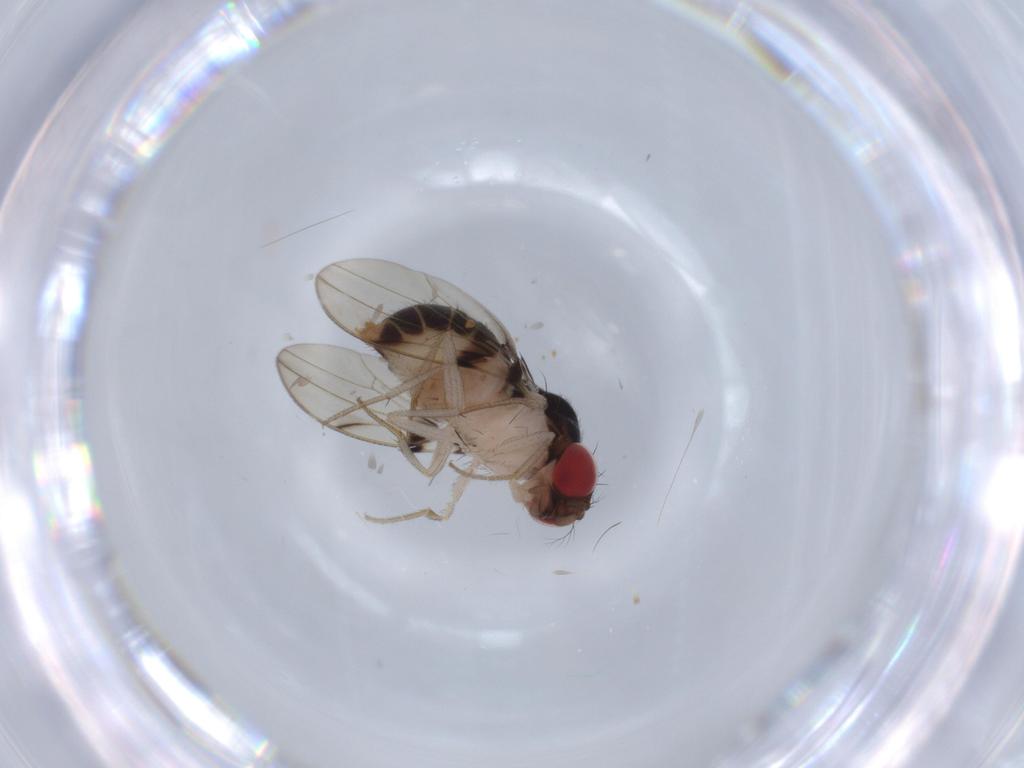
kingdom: Animalia
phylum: Arthropoda
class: Insecta
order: Diptera
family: Drosophilidae
